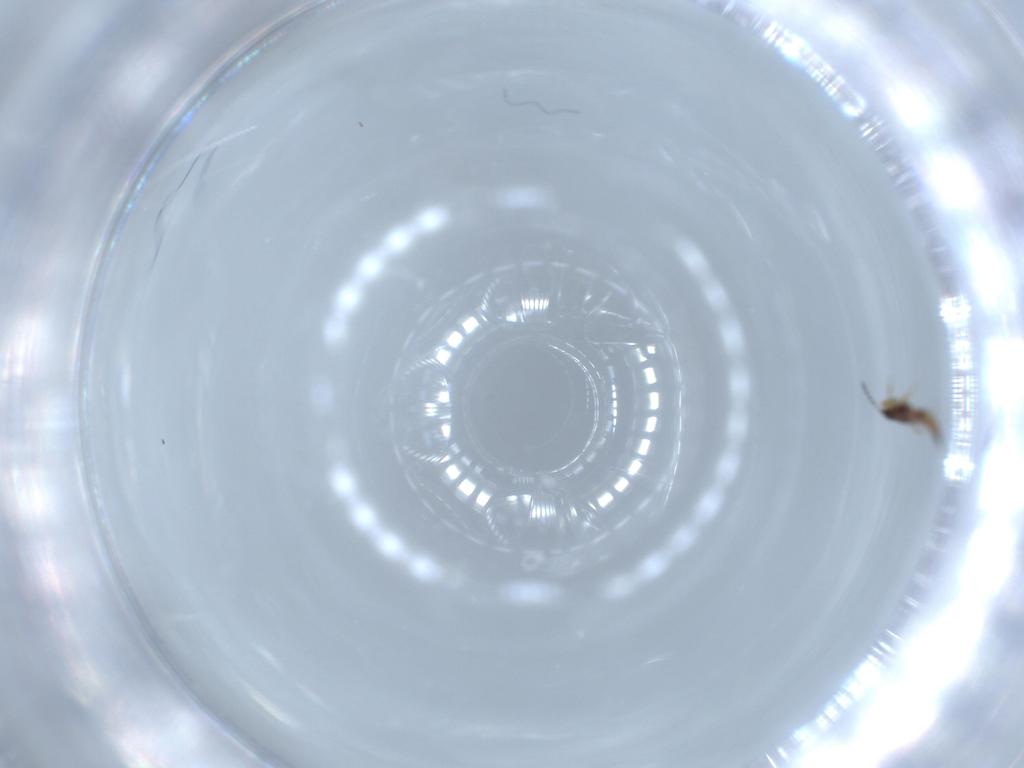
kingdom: Animalia
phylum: Arthropoda
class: Insecta
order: Thysanoptera
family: Phlaeothripidae
